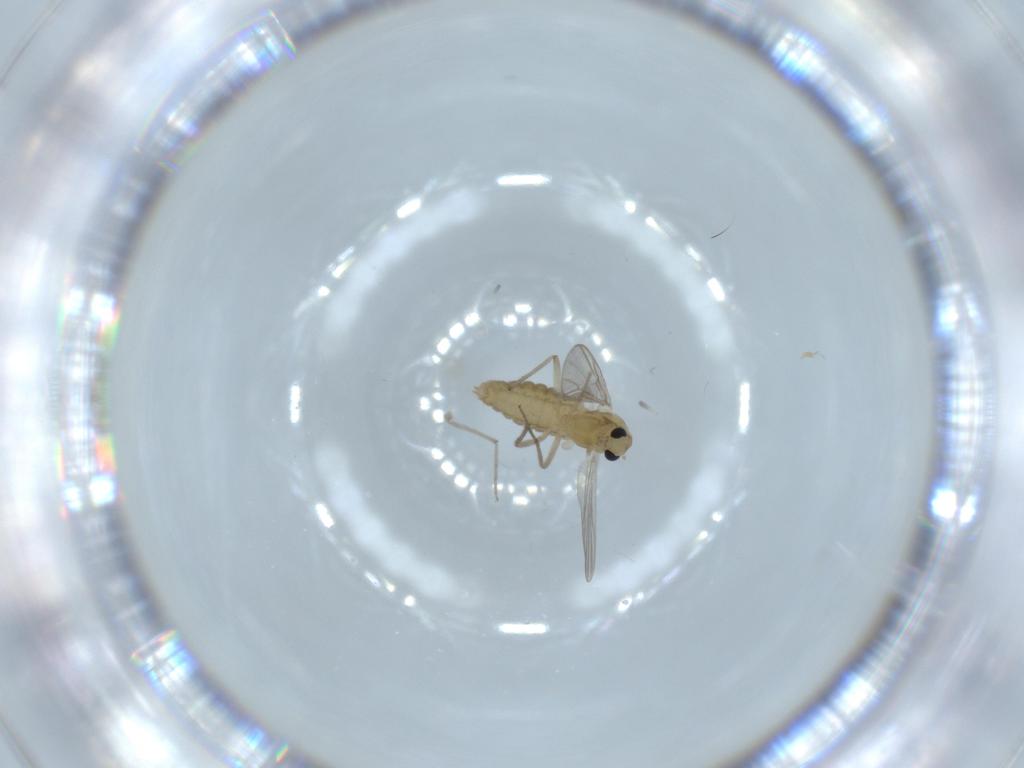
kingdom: Animalia
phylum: Arthropoda
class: Insecta
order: Diptera
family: Chironomidae
